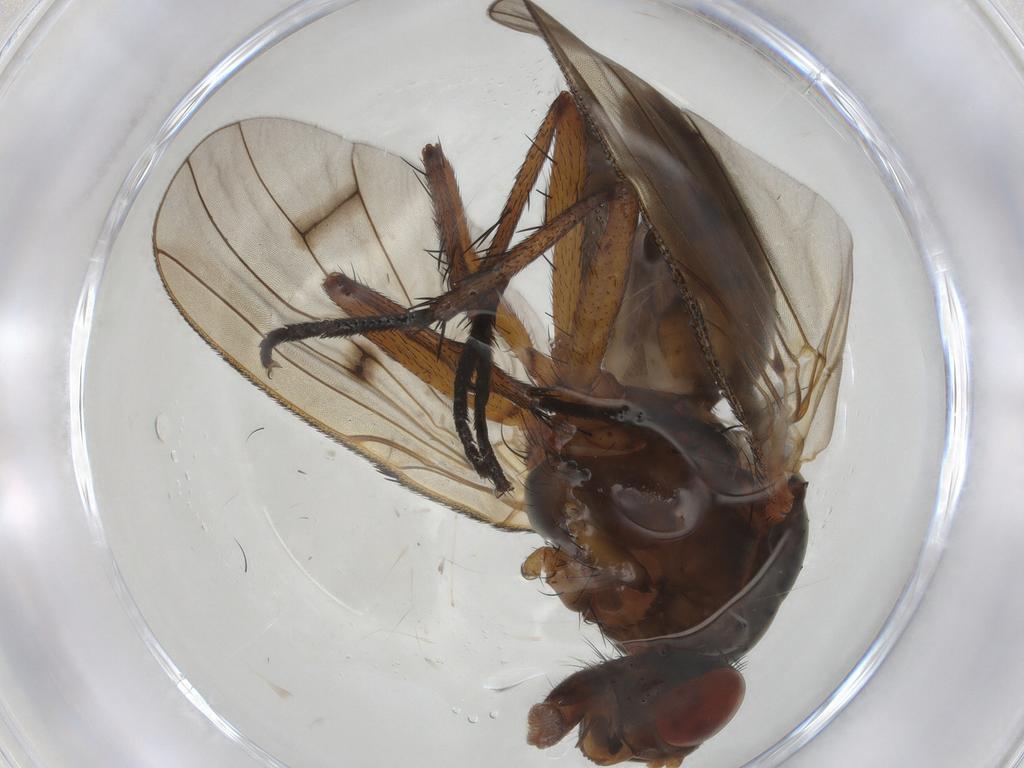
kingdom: Animalia
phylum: Arthropoda
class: Insecta
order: Diptera
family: Anthomyiidae
